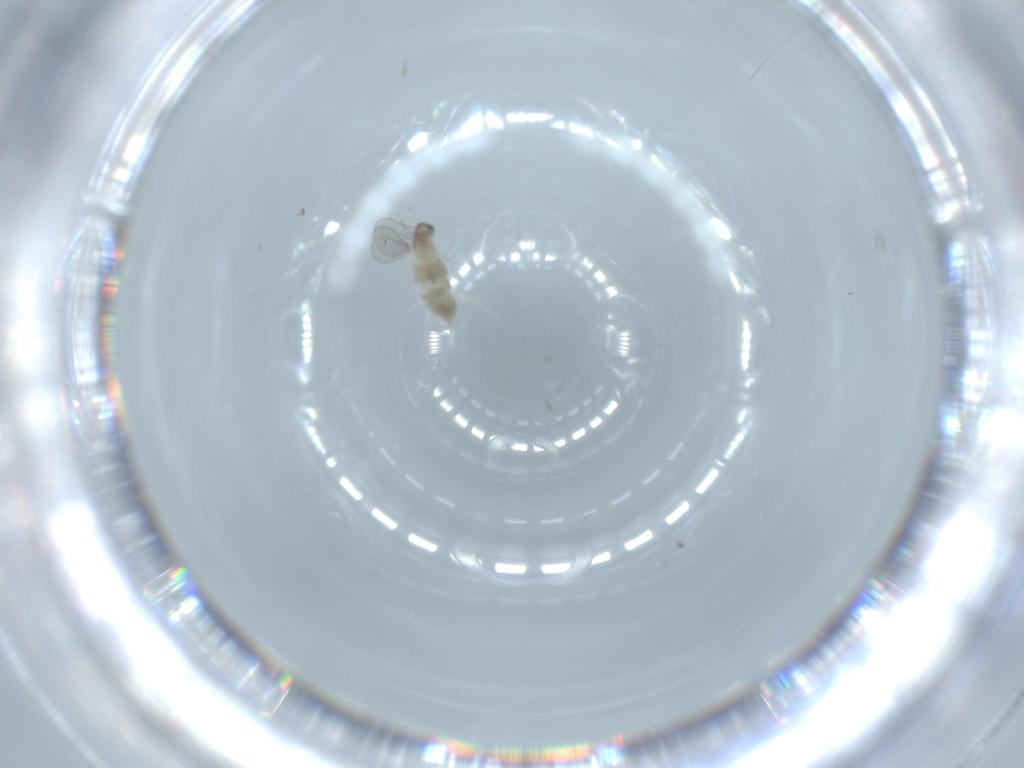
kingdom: Animalia
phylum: Arthropoda
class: Insecta
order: Diptera
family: Cecidomyiidae
